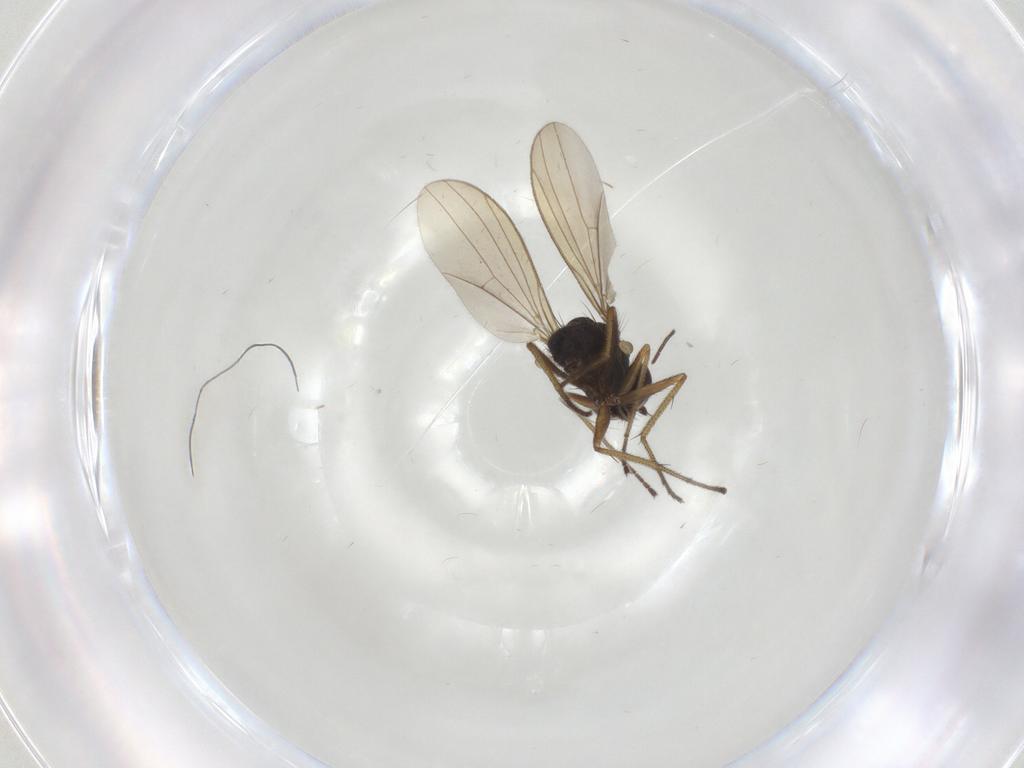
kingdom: Animalia
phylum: Arthropoda
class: Insecta
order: Diptera
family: Dolichopodidae
